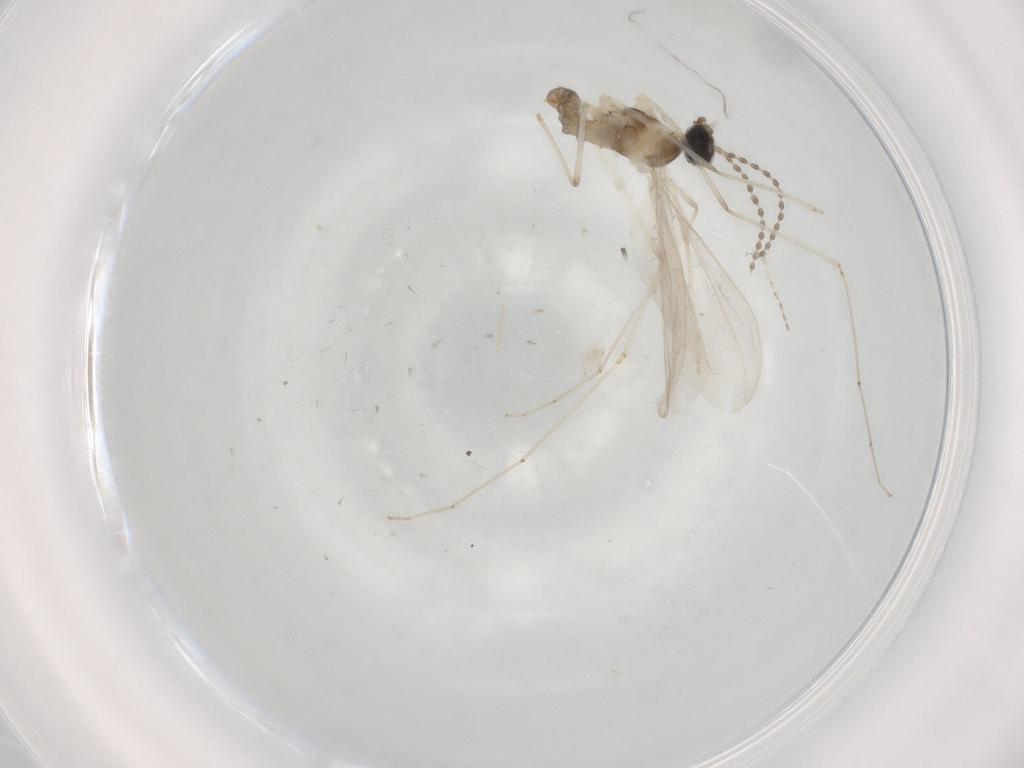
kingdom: Animalia
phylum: Arthropoda
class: Insecta
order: Diptera
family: Cecidomyiidae
